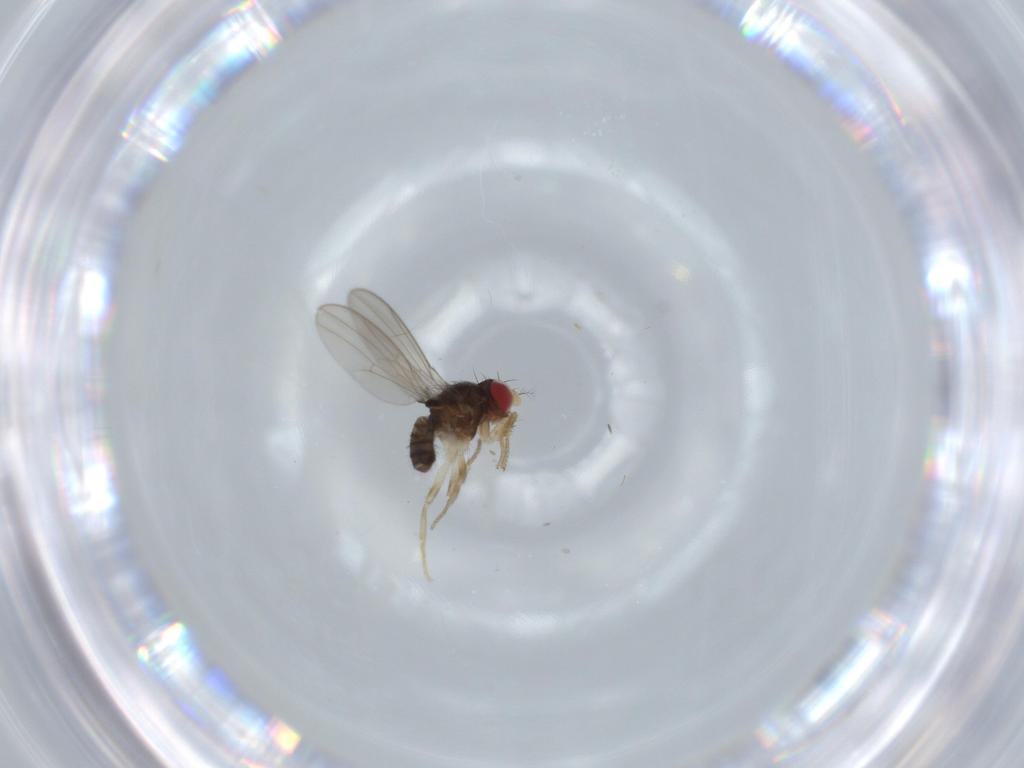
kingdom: Animalia
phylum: Arthropoda
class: Insecta
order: Diptera
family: Drosophilidae
